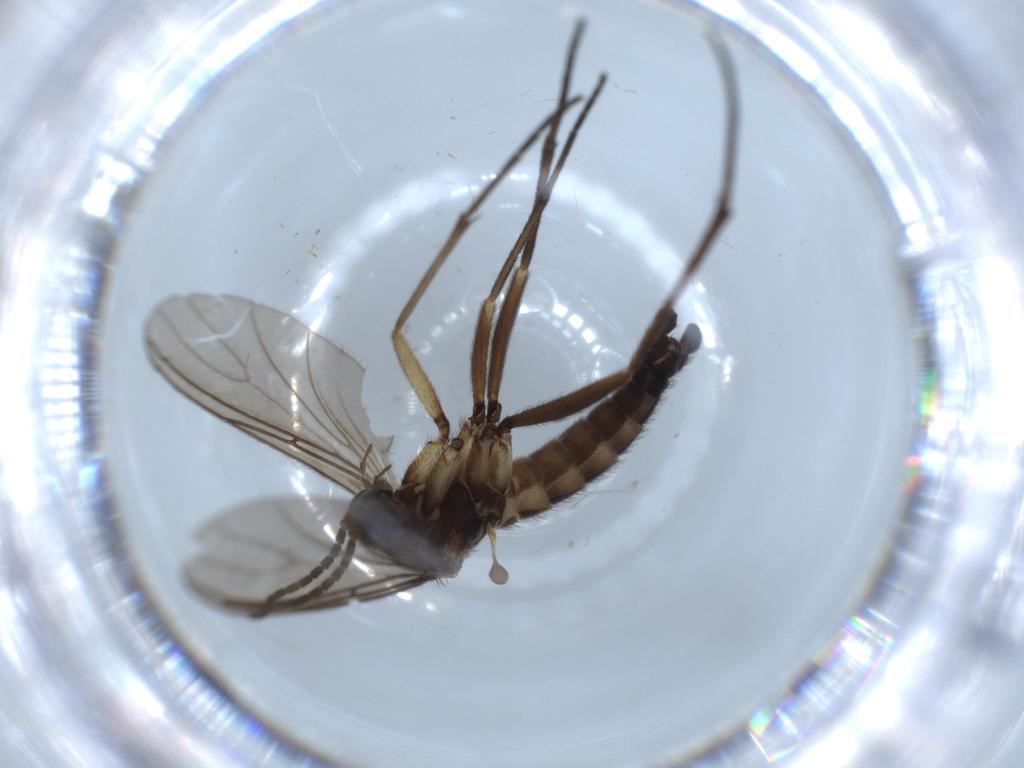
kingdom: Animalia
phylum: Arthropoda
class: Insecta
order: Diptera
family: Sciaridae
